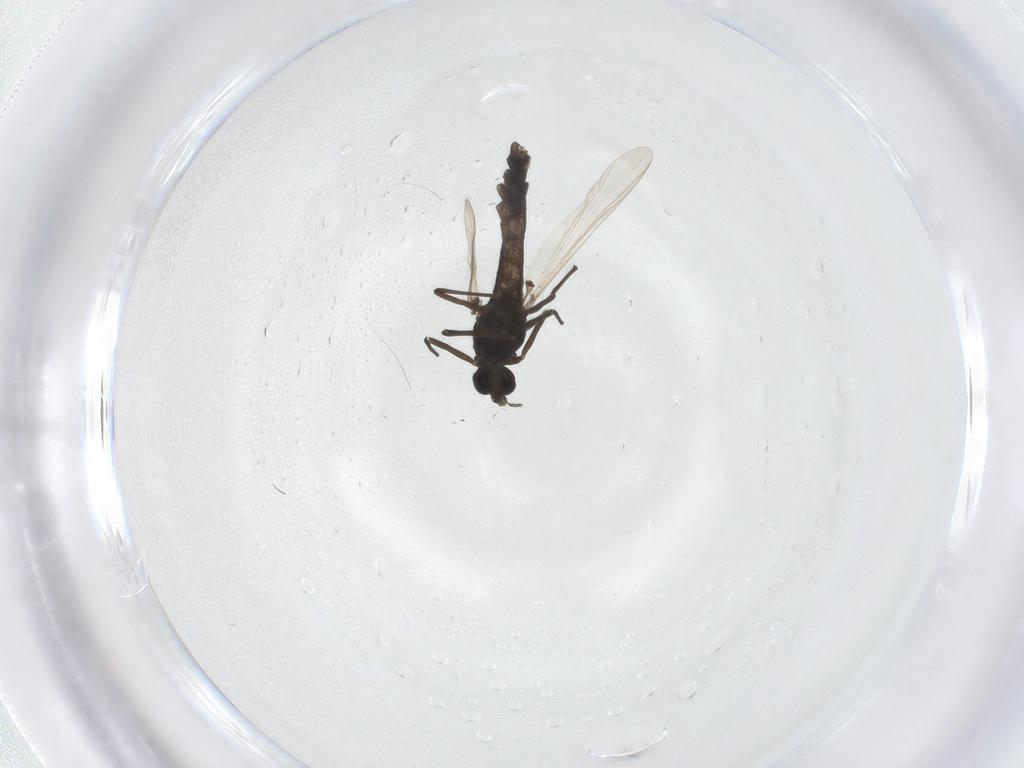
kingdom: Animalia
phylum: Arthropoda
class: Insecta
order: Diptera
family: Chironomidae
